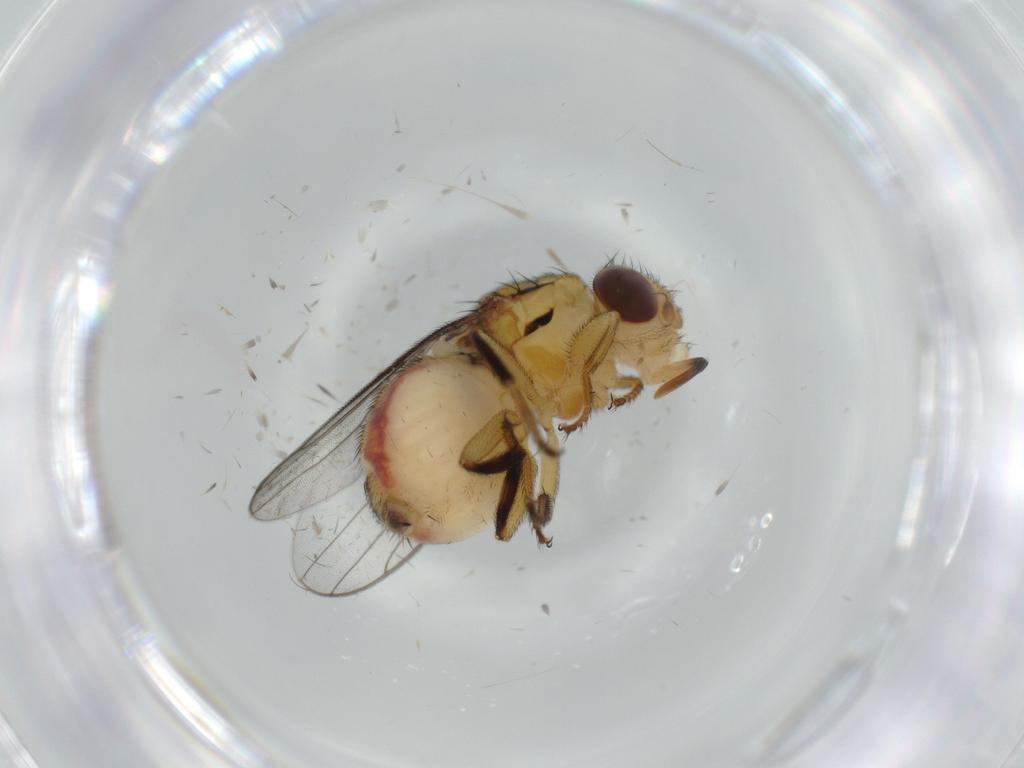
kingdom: Animalia
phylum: Arthropoda
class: Insecta
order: Diptera
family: Chloropidae
